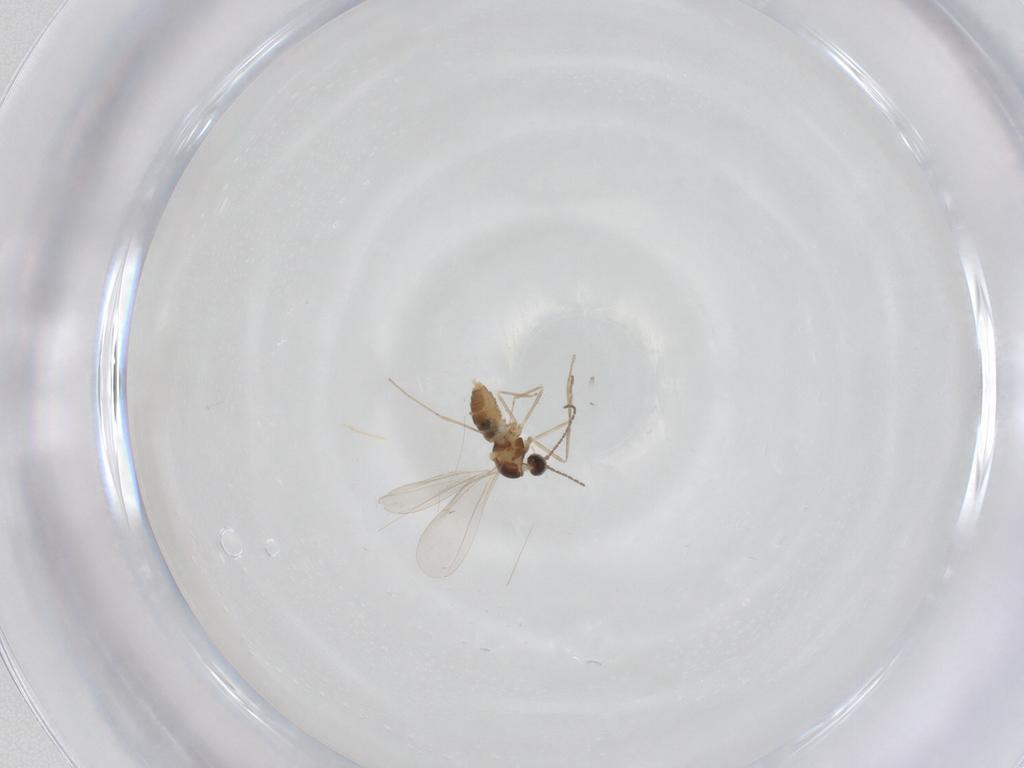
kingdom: Animalia
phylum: Arthropoda
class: Insecta
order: Diptera
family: Cecidomyiidae
